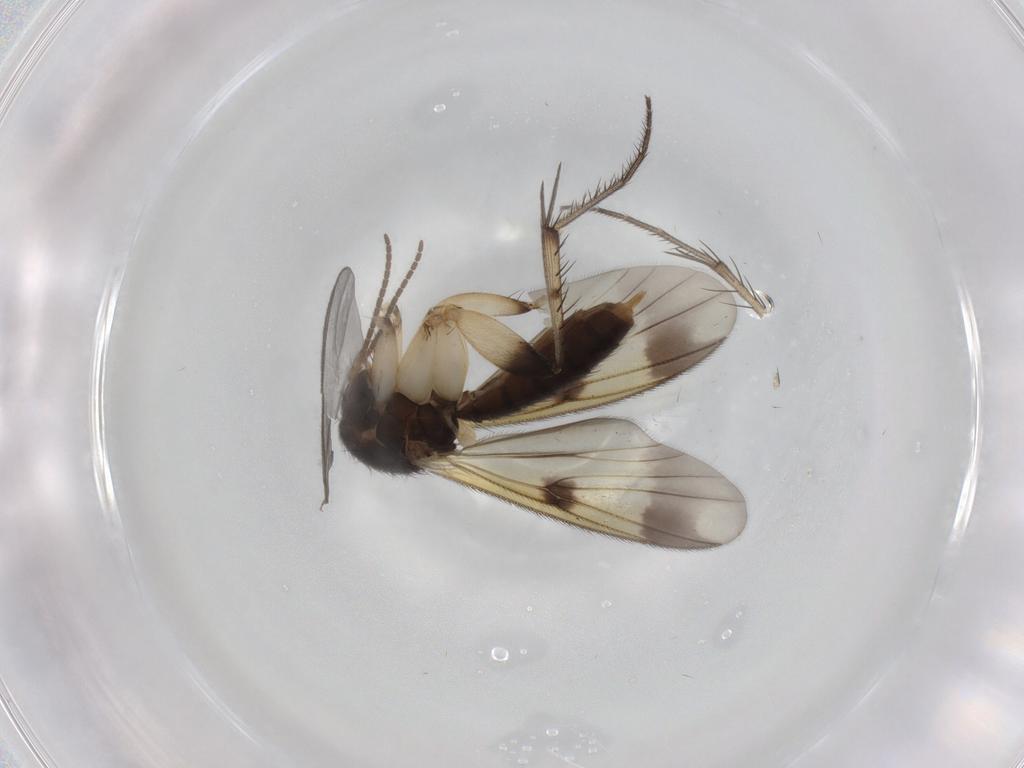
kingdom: Animalia
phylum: Arthropoda
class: Insecta
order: Diptera
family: Mycetophilidae
